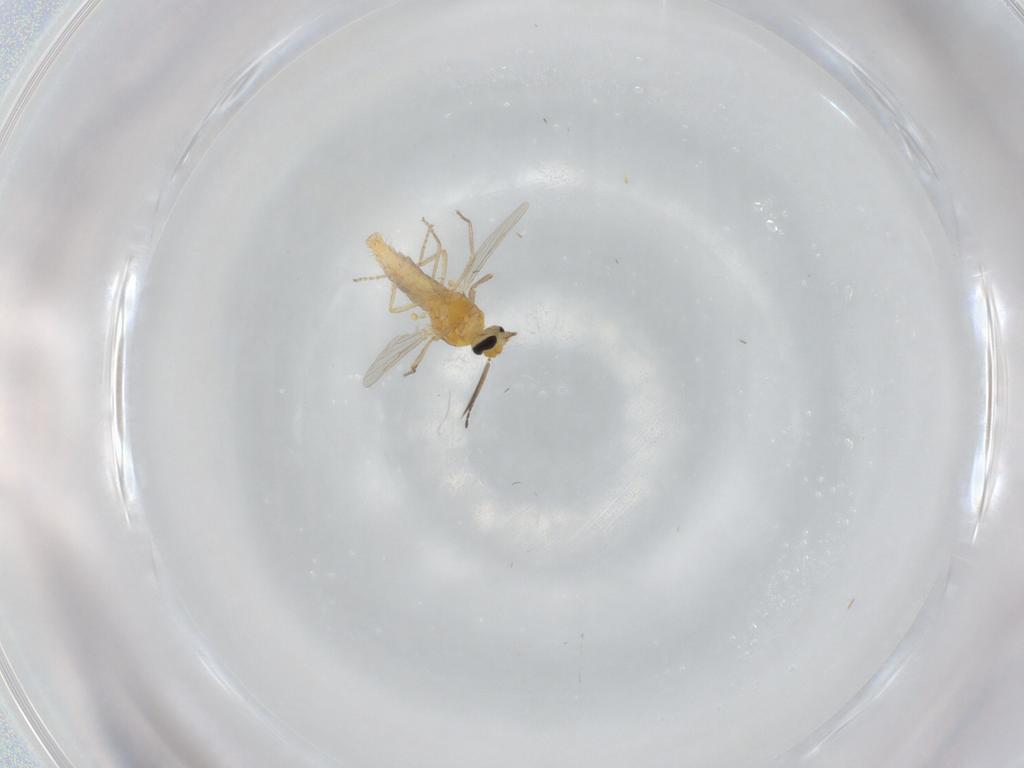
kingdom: Animalia
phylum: Arthropoda
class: Insecta
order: Diptera
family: Ceratopogonidae
